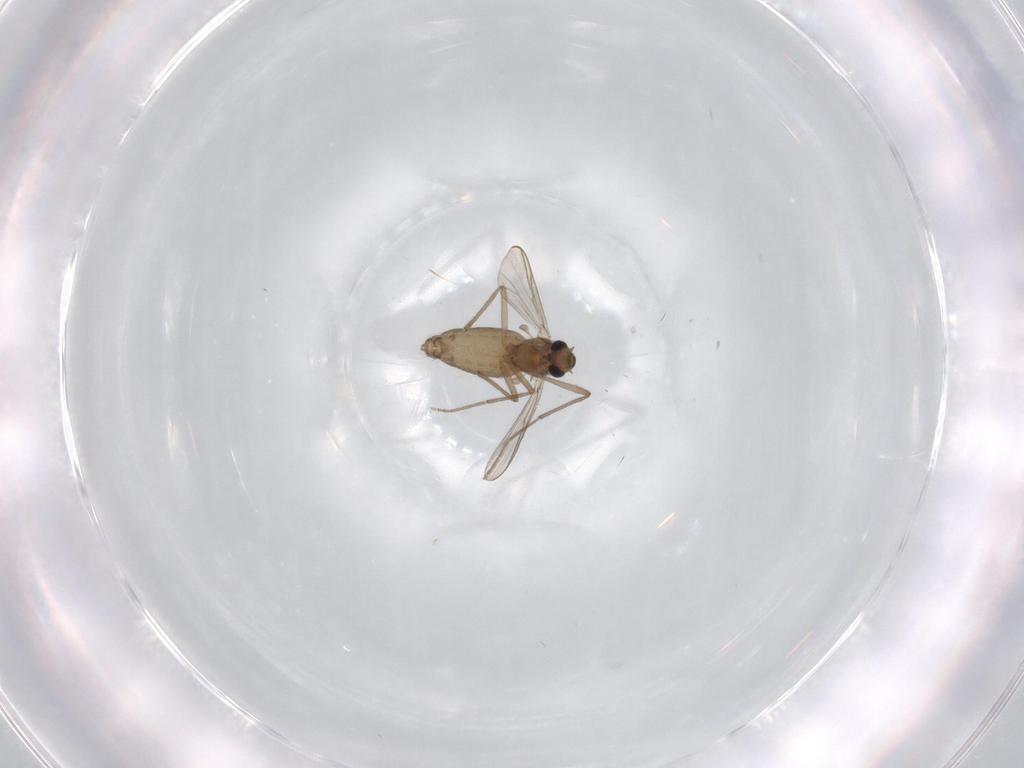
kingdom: Animalia
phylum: Arthropoda
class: Insecta
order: Diptera
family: Chironomidae
